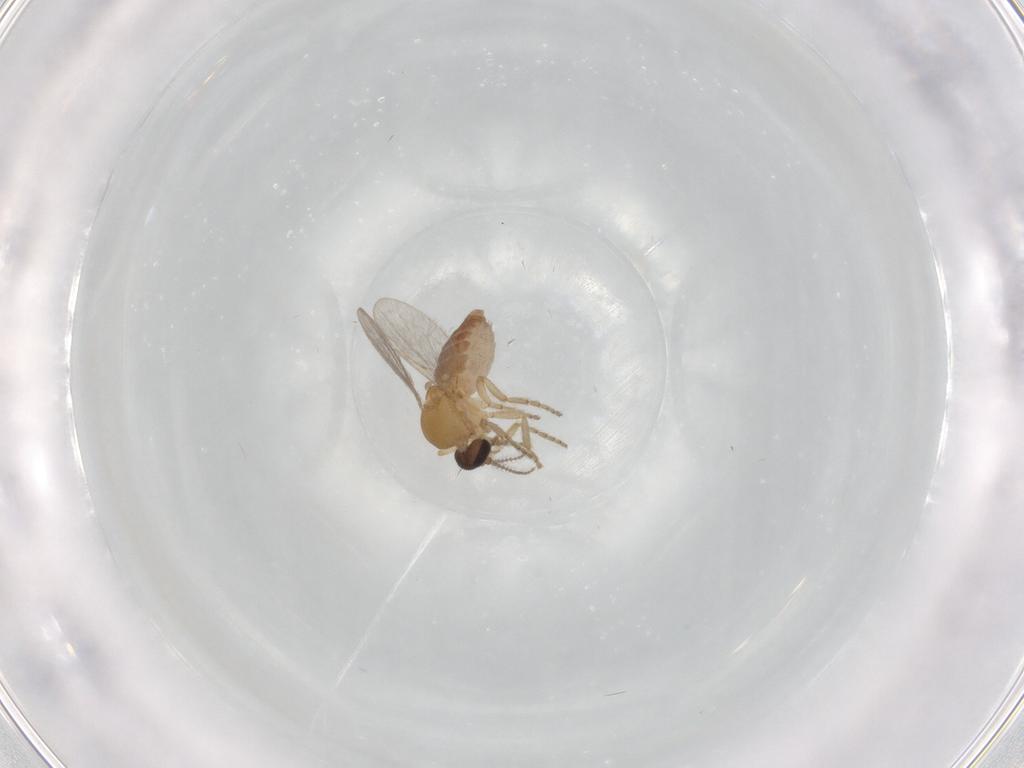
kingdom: Animalia
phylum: Arthropoda
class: Insecta
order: Diptera
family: Ceratopogonidae
